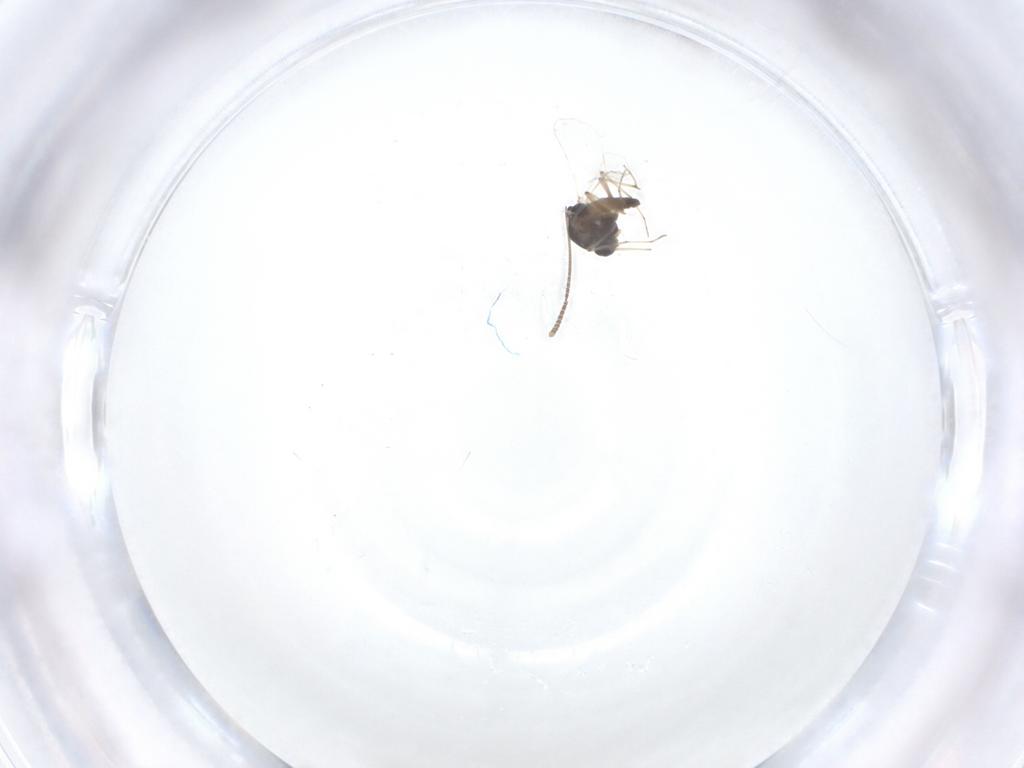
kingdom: Animalia
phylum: Arthropoda
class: Insecta
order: Diptera
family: Chironomidae
